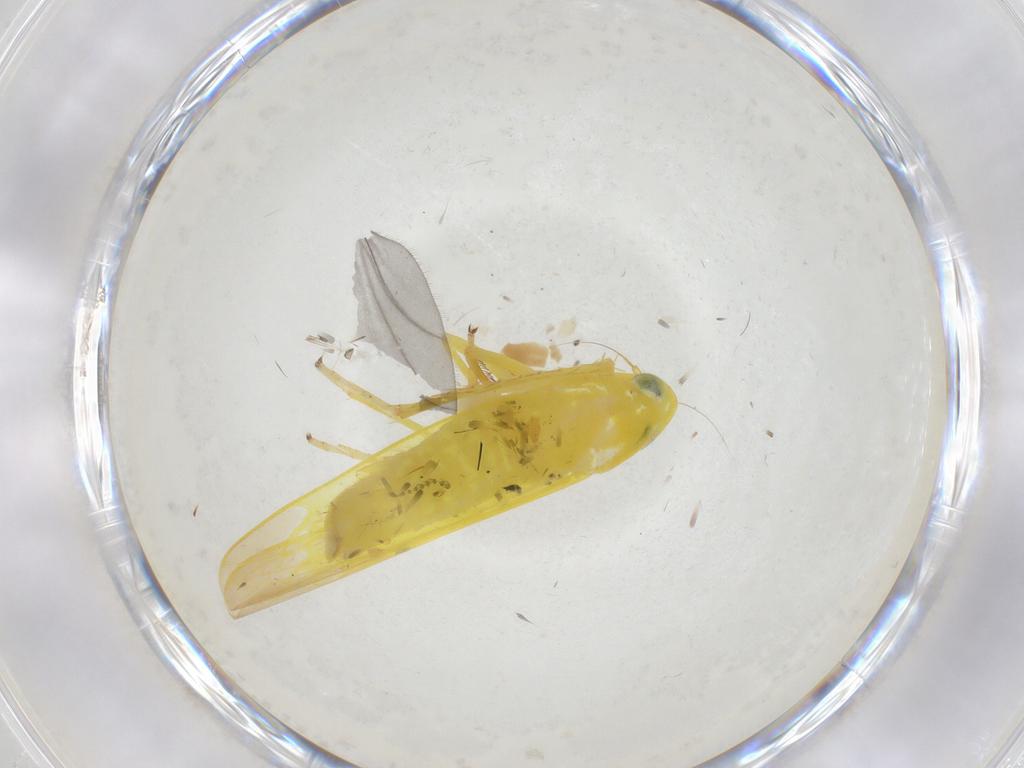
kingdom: Animalia
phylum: Arthropoda
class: Insecta
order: Hemiptera
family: Cicadellidae
